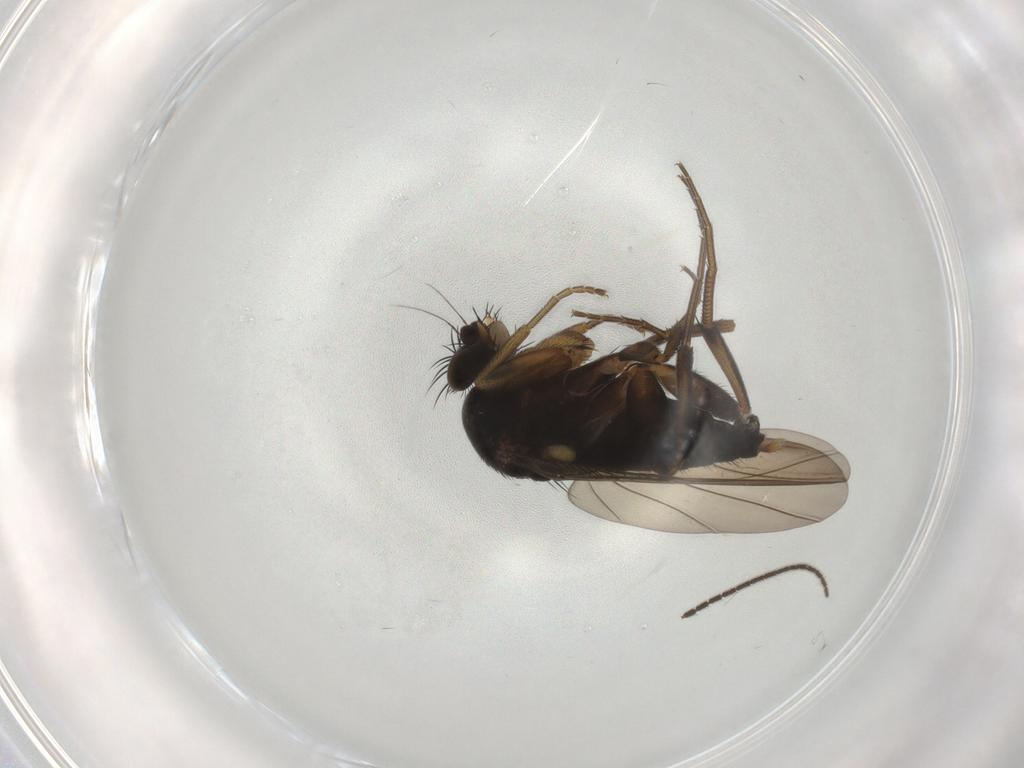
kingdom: Animalia
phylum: Arthropoda
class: Insecta
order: Diptera
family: Phoridae
